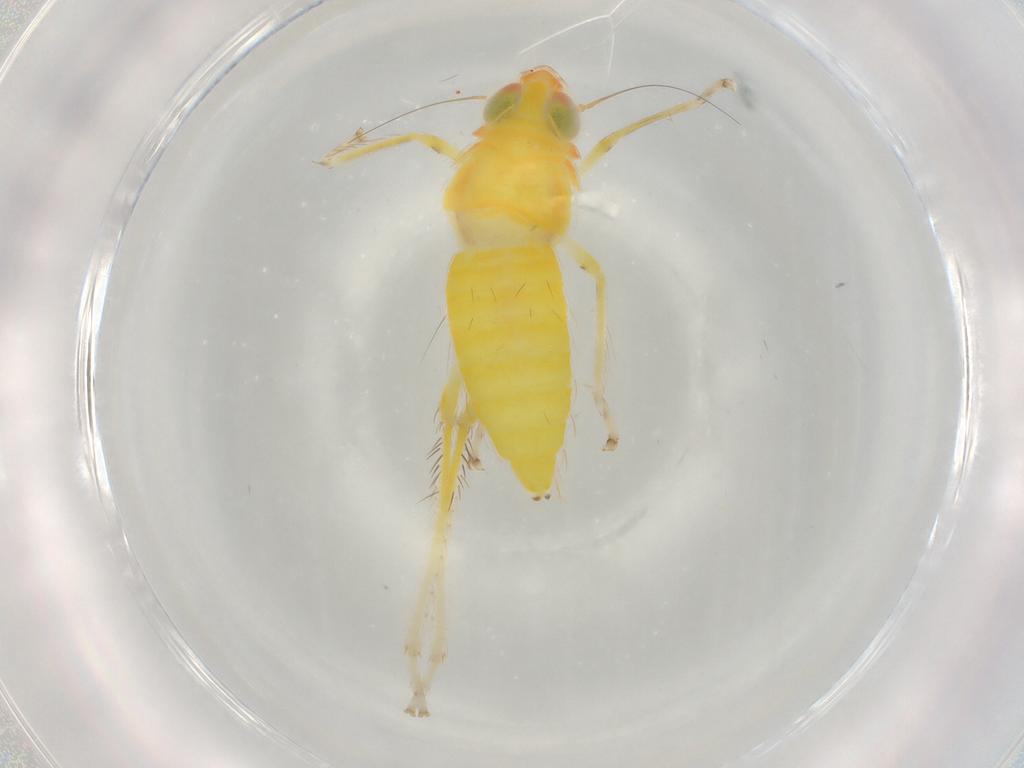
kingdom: Animalia
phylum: Arthropoda
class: Insecta
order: Hemiptera
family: Cicadellidae
